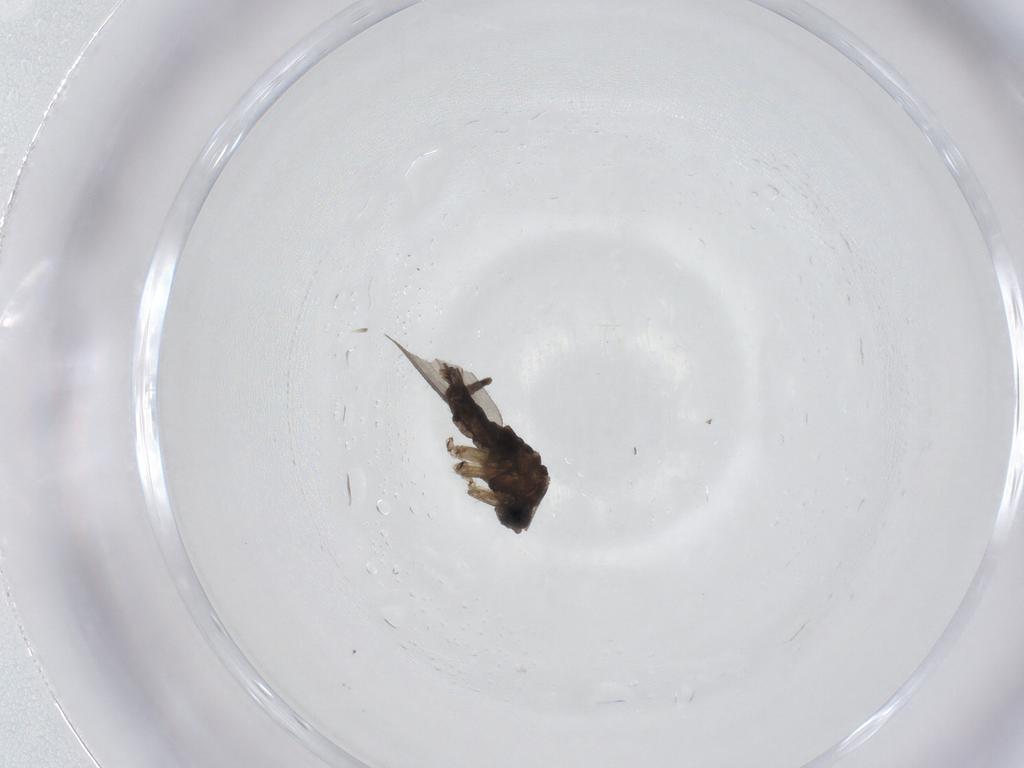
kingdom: Animalia
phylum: Arthropoda
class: Insecta
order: Diptera
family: Sciaridae
